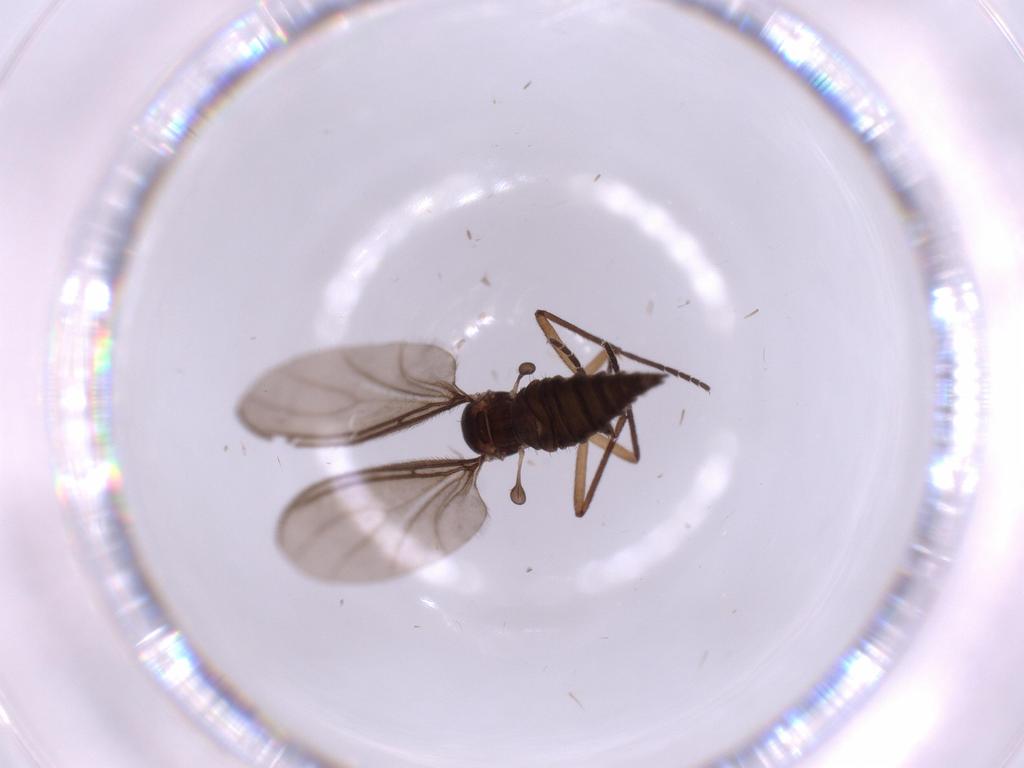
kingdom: Animalia
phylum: Arthropoda
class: Insecta
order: Diptera
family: Sciaridae
